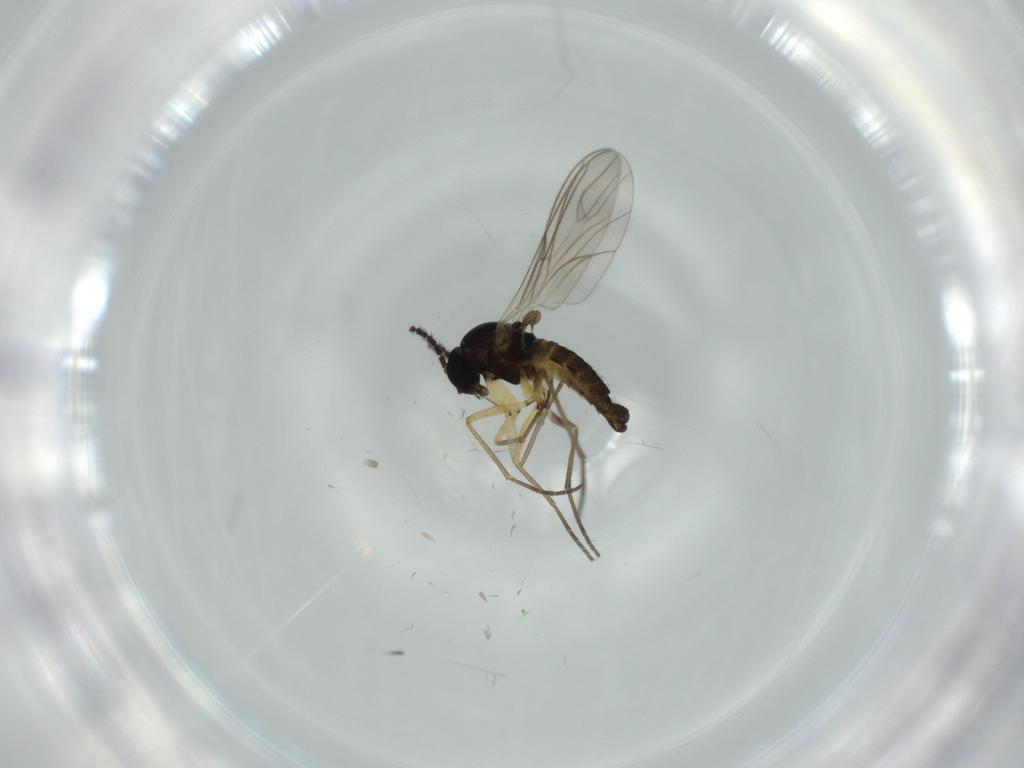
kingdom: Animalia
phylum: Arthropoda
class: Insecta
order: Diptera
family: Sciaridae
